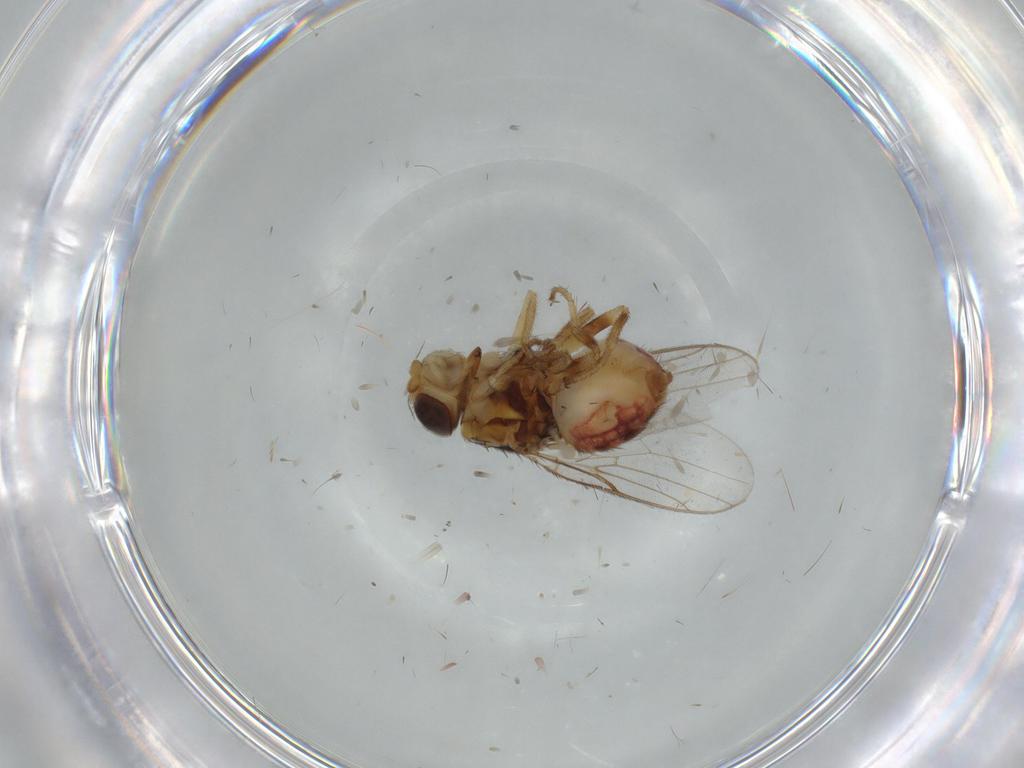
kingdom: Animalia
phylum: Arthropoda
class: Insecta
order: Diptera
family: Chloropidae
